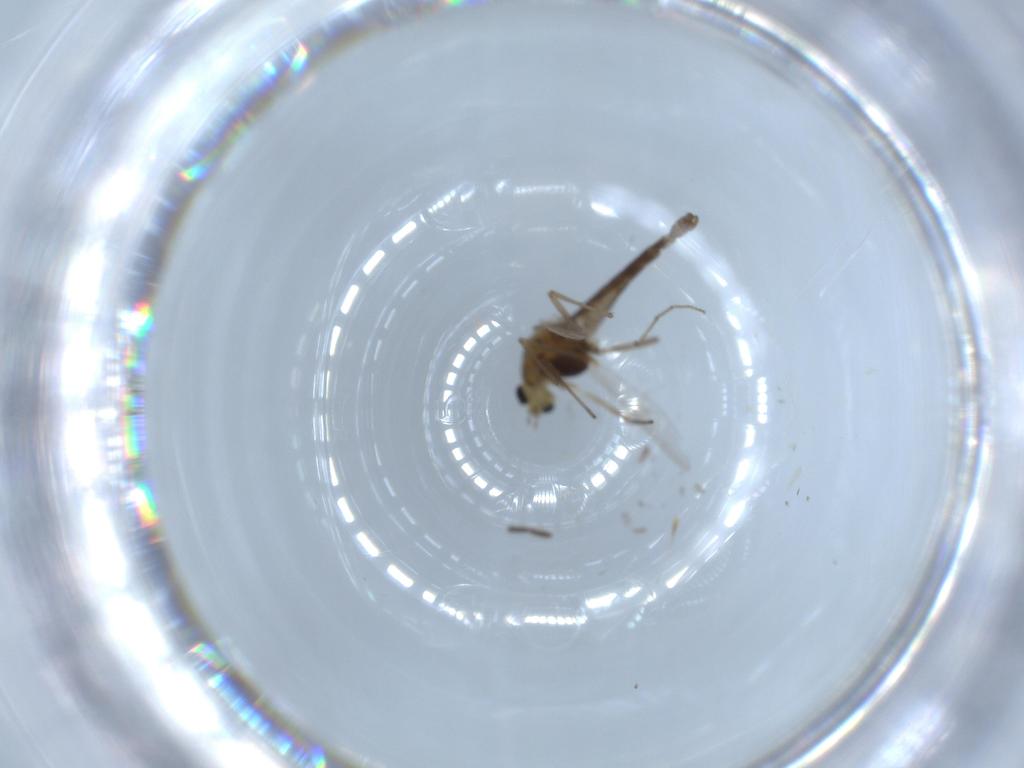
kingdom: Animalia
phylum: Arthropoda
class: Insecta
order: Diptera
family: Chironomidae
